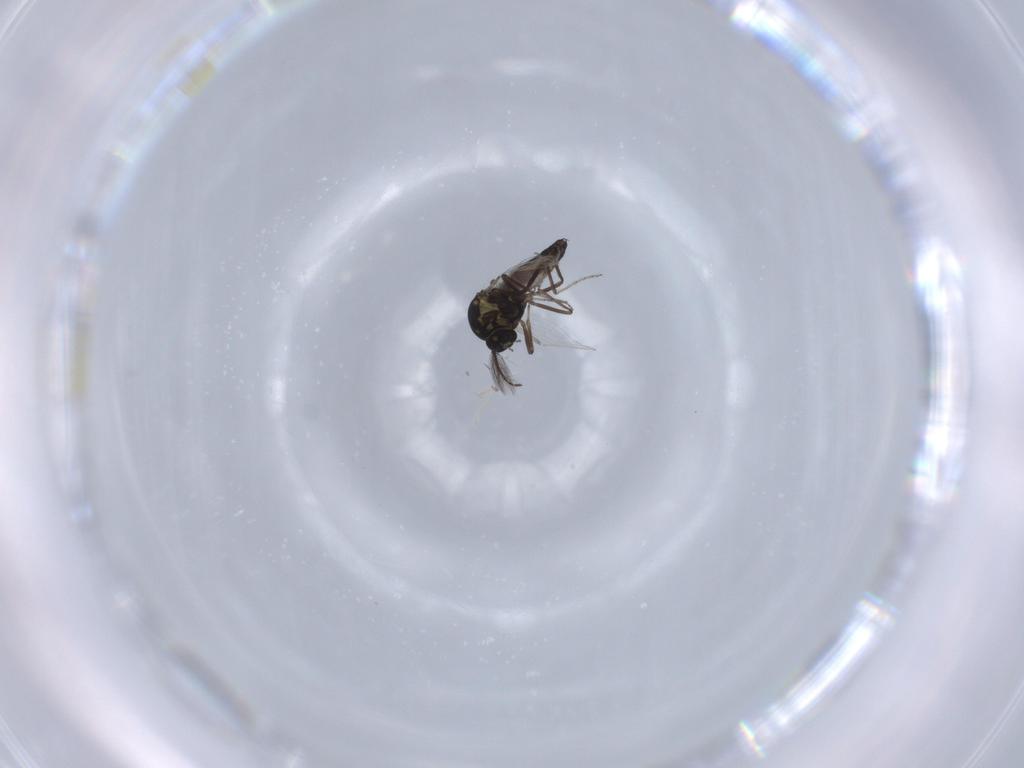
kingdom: Animalia
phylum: Arthropoda
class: Insecta
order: Diptera
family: Ceratopogonidae
